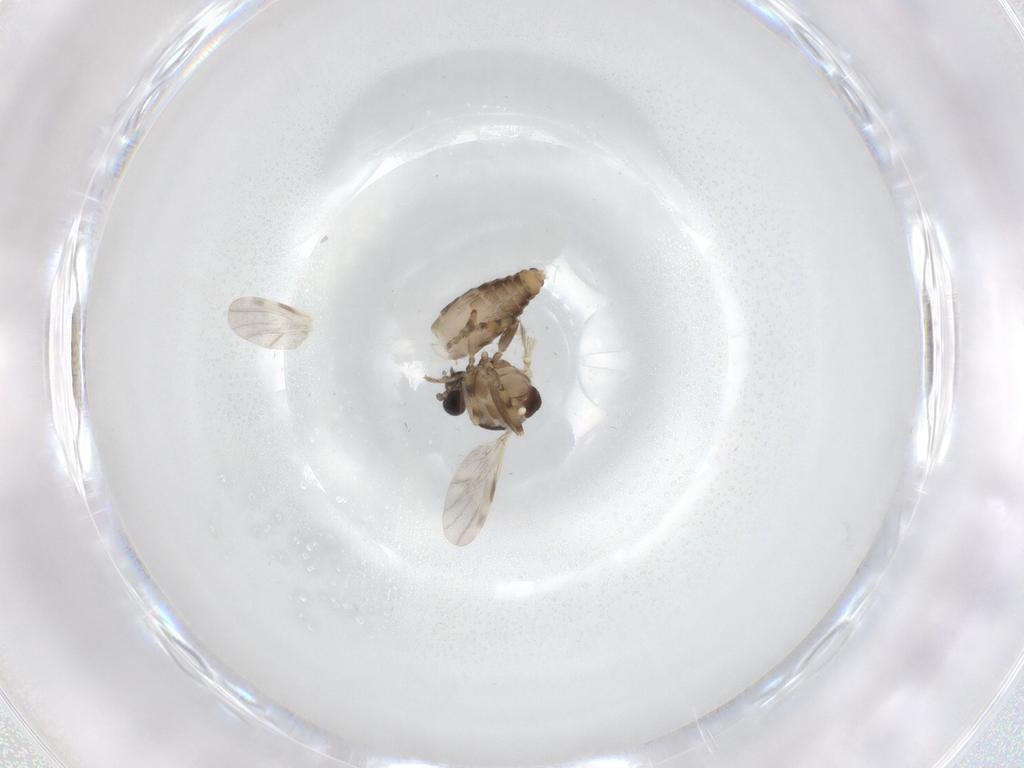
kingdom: Animalia
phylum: Arthropoda
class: Insecta
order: Diptera
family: Ceratopogonidae
